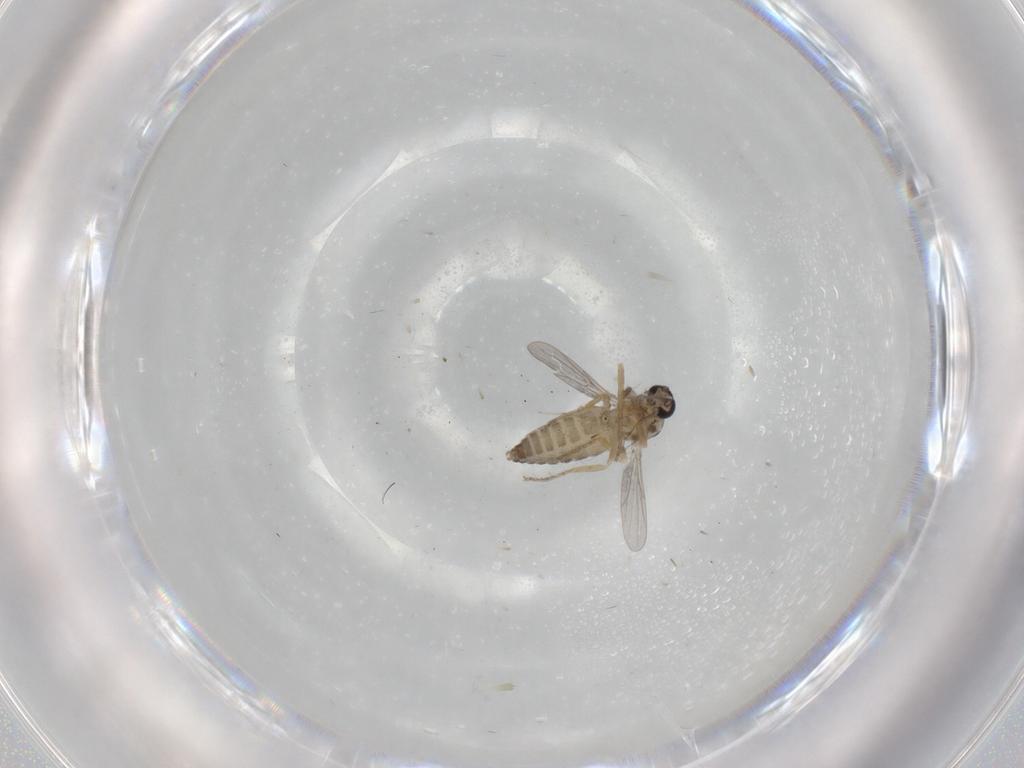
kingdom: Animalia
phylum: Arthropoda
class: Insecta
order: Diptera
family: Ceratopogonidae
